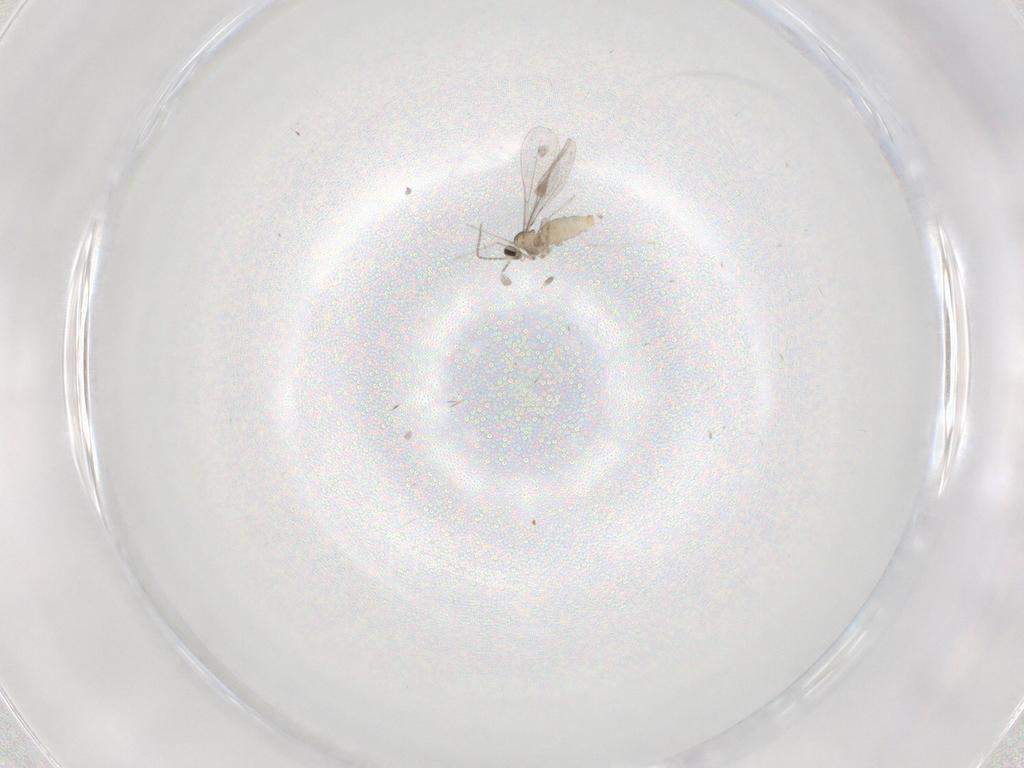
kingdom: Animalia
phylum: Arthropoda
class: Insecta
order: Diptera
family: Cecidomyiidae
